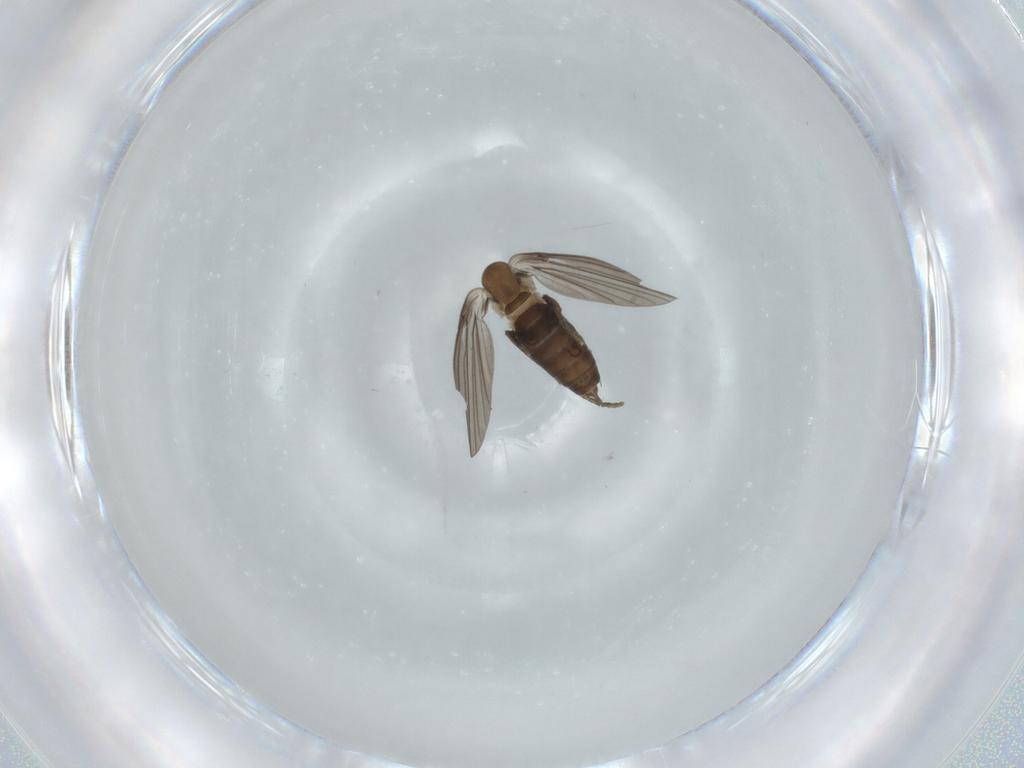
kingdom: Animalia
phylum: Arthropoda
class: Insecta
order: Diptera
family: Psychodidae
